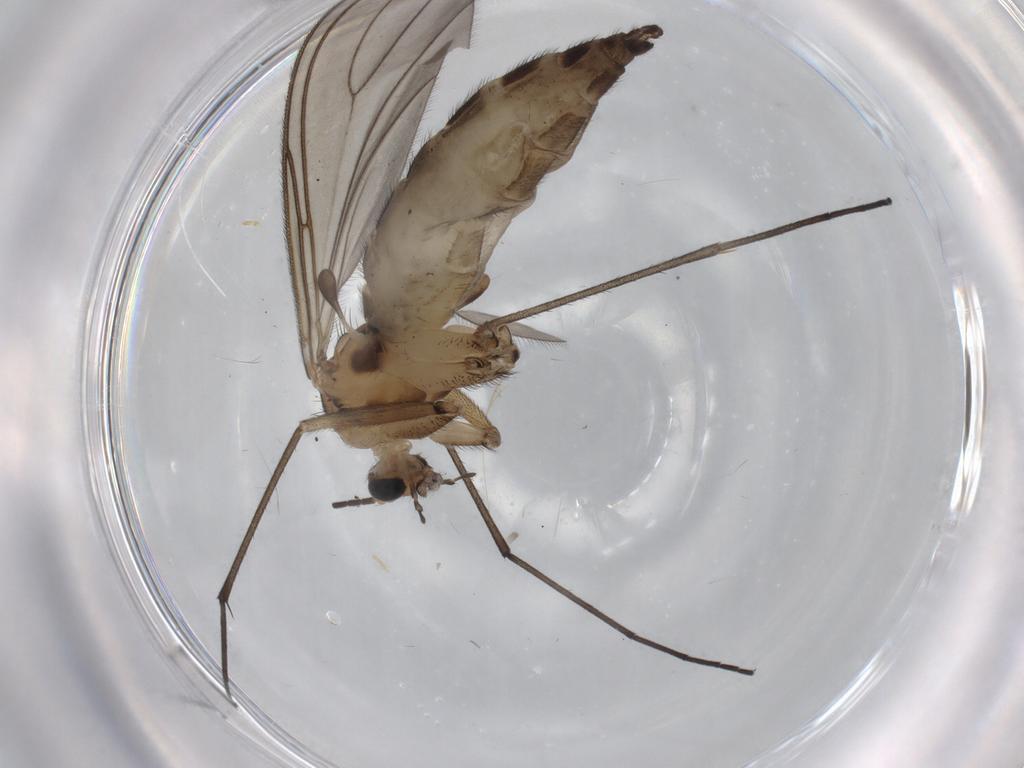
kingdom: Animalia
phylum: Arthropoda
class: Insecta
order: Diptera
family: Sciaridae
